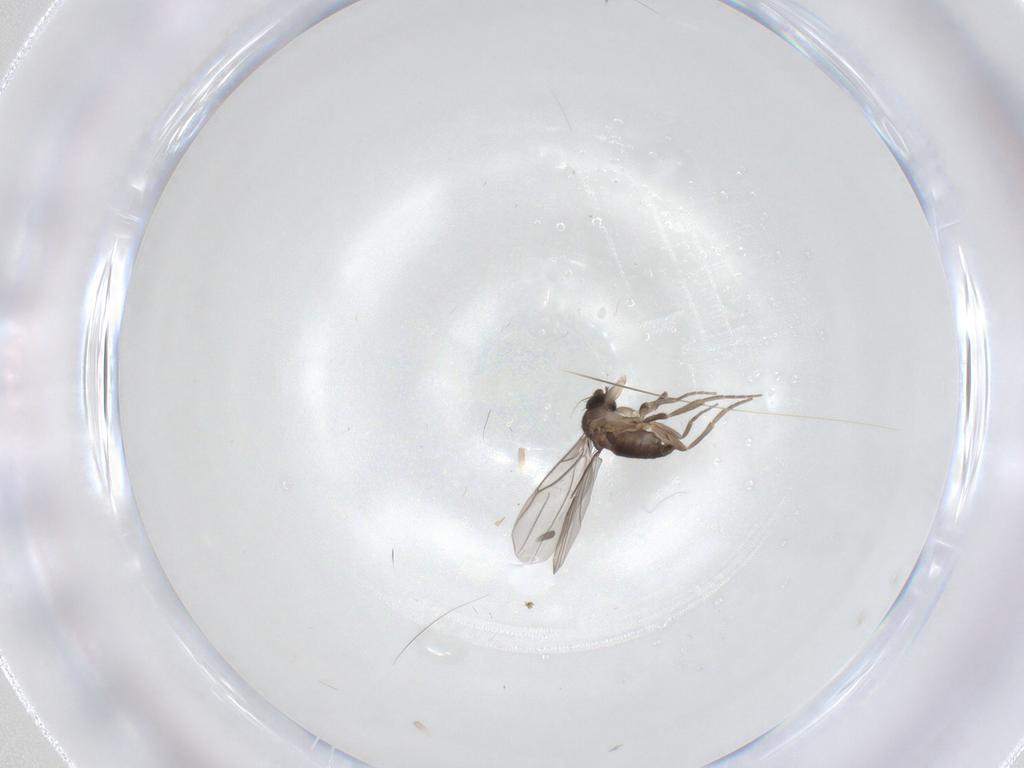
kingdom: Animalia
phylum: Arthropoda
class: Insecta
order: Diptera
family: Phoridae
